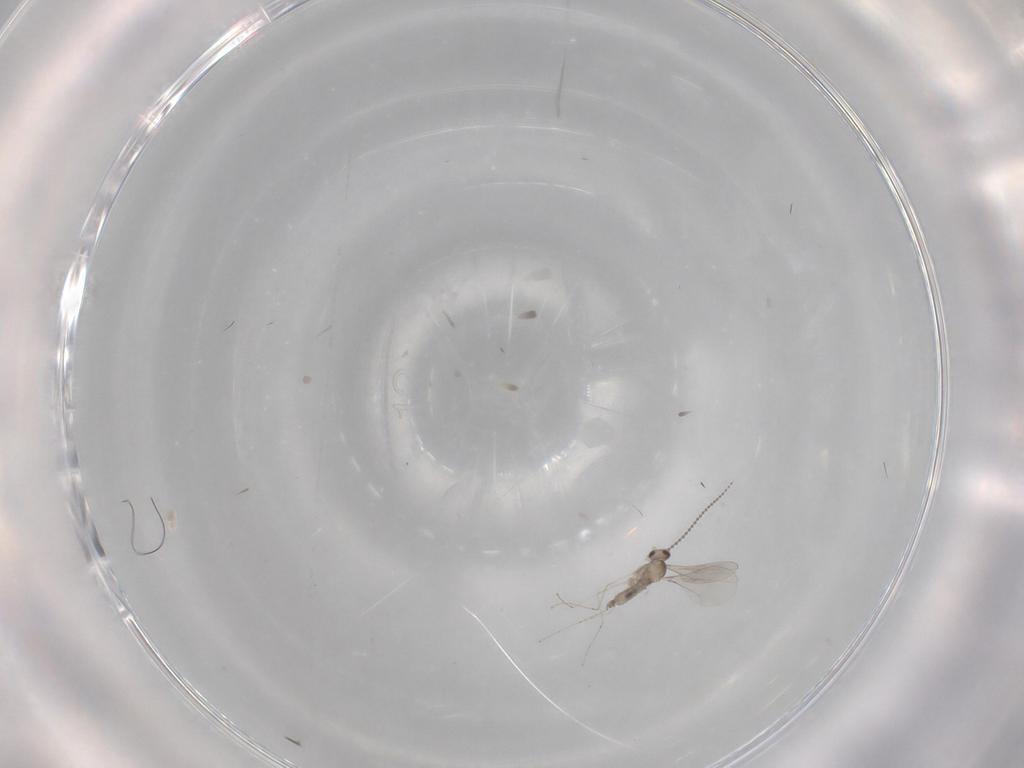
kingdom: Animalia
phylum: Arthropoda
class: Insecta
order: Diptera
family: Cecidomyiidae
